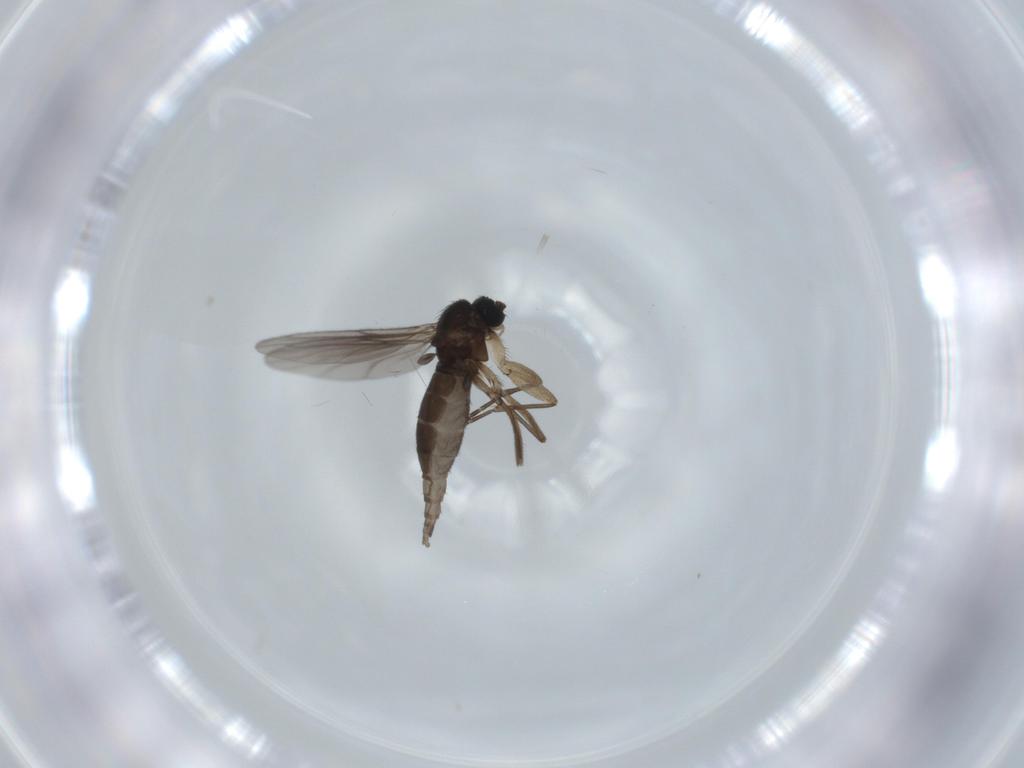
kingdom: Animalia
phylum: Arthropoda
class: Insecta
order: Diptera
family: Sciaridae
